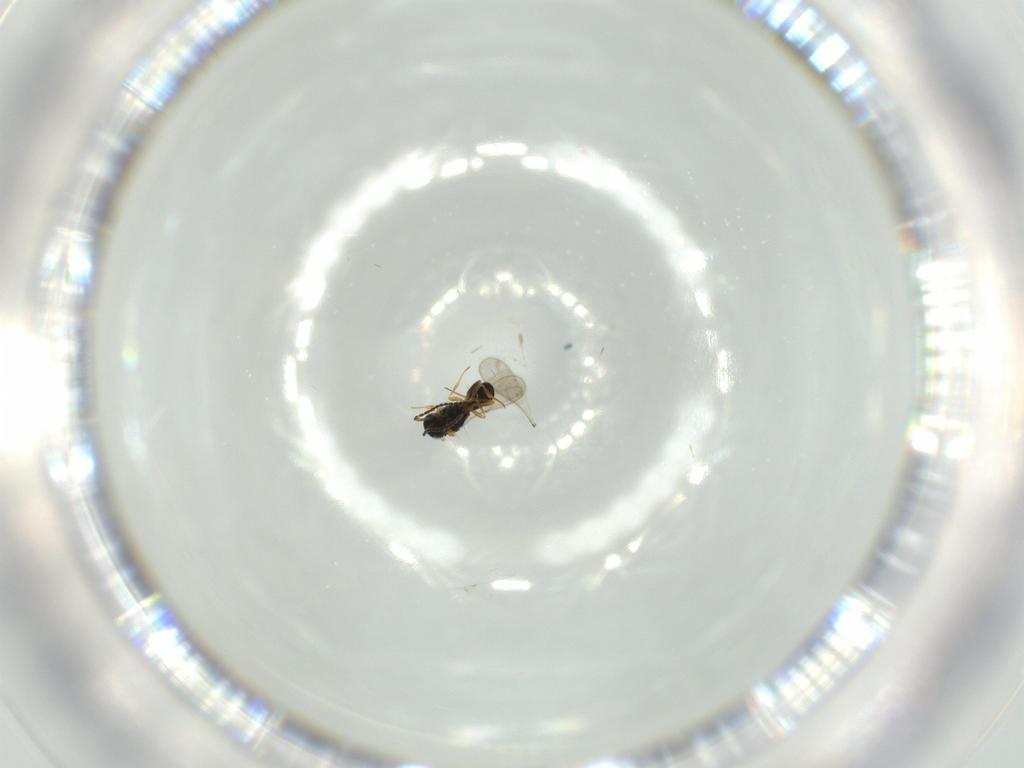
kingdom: Animalia
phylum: Arthropoda
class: Insecta
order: Hymenoptera
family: Scelionidae
